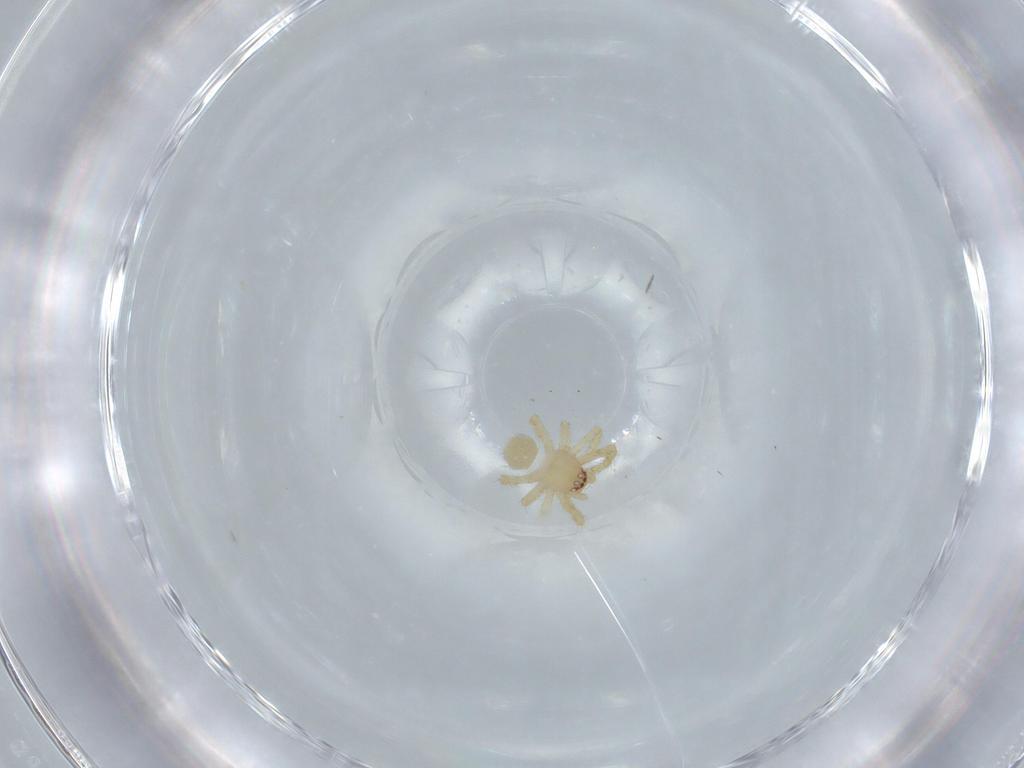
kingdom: Animalia
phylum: Arthropoda
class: Arachnida
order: Araneae
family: Theridiidae
